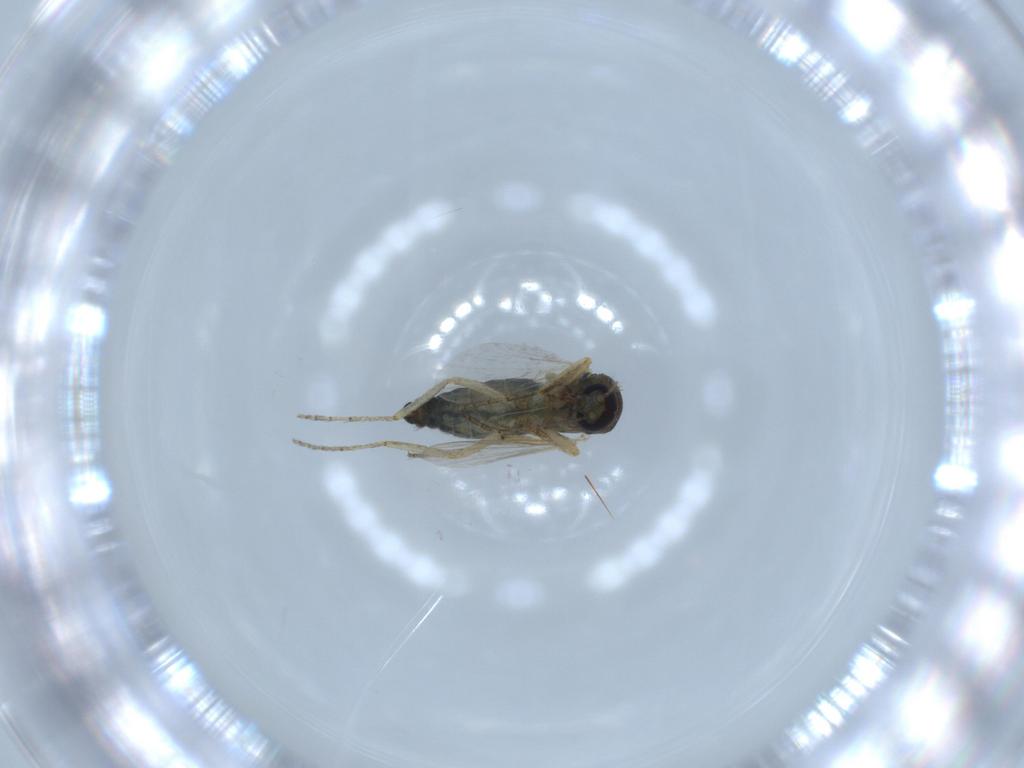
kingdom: Animalia
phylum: Arthropoda
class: Insecta
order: Diptera
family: Ceratopogonidae
